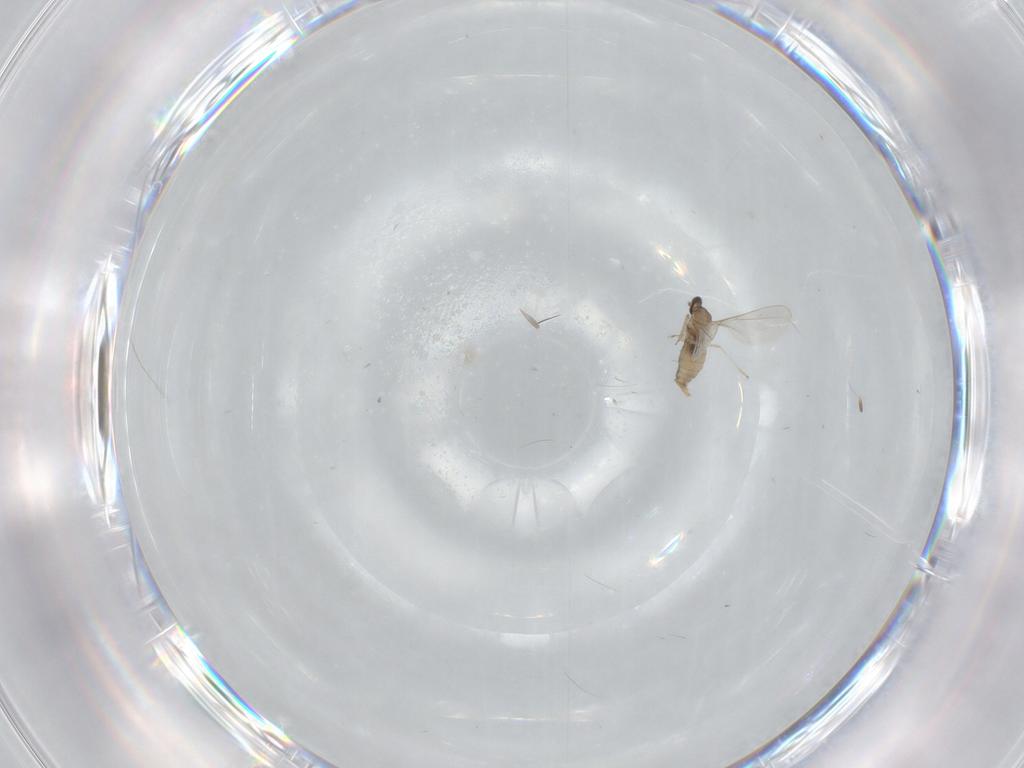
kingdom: Animalia
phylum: Arthropoda
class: Insecta
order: Diptera
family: Cecidomyiidae
